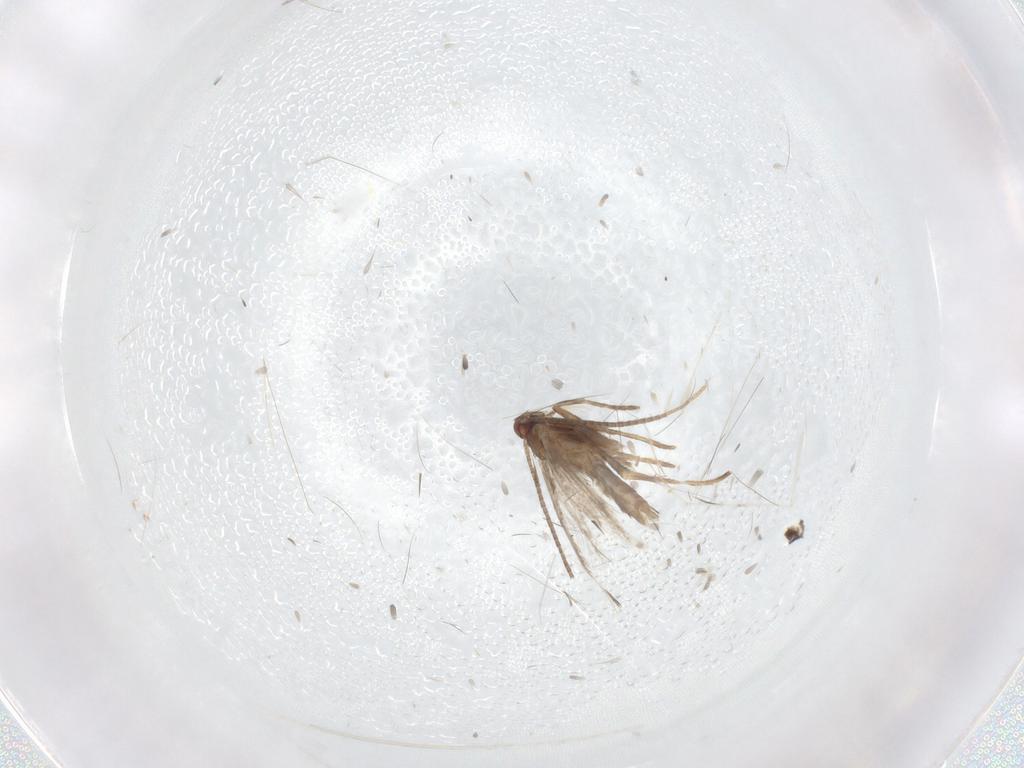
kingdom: Animalia
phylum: Arthropoda
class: Insecta
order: Lepidoptera
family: Gracillariidae
